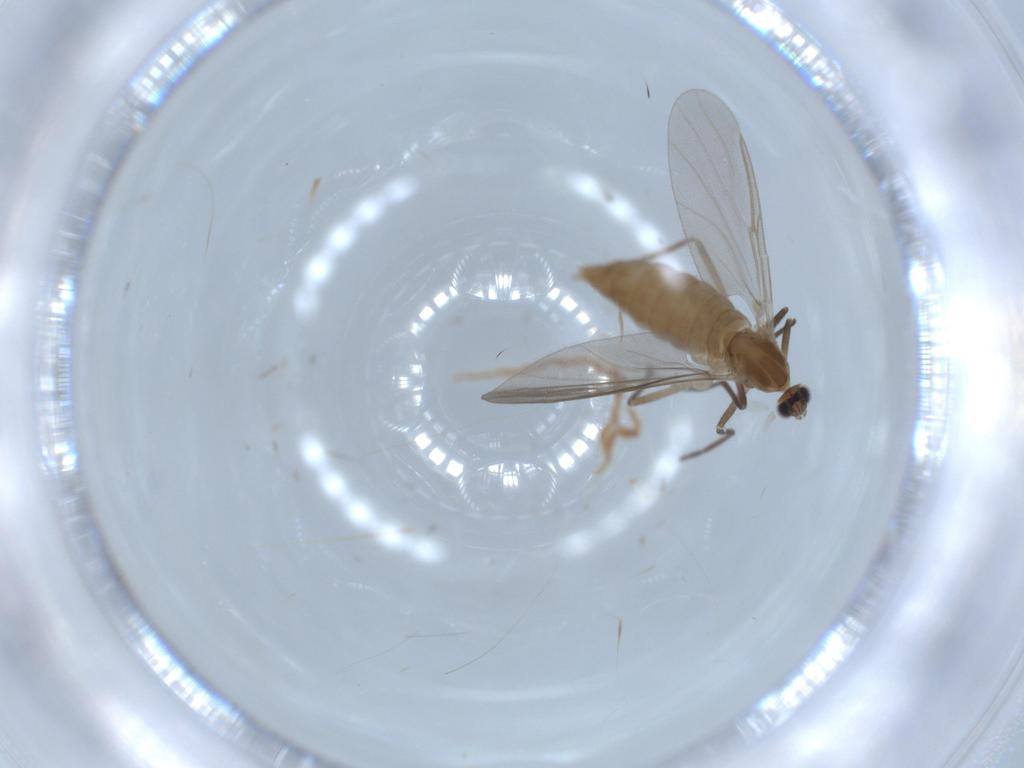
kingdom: Animalia
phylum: Arthropoda
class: Insecta
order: Diptera
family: Cecidomyiidae
